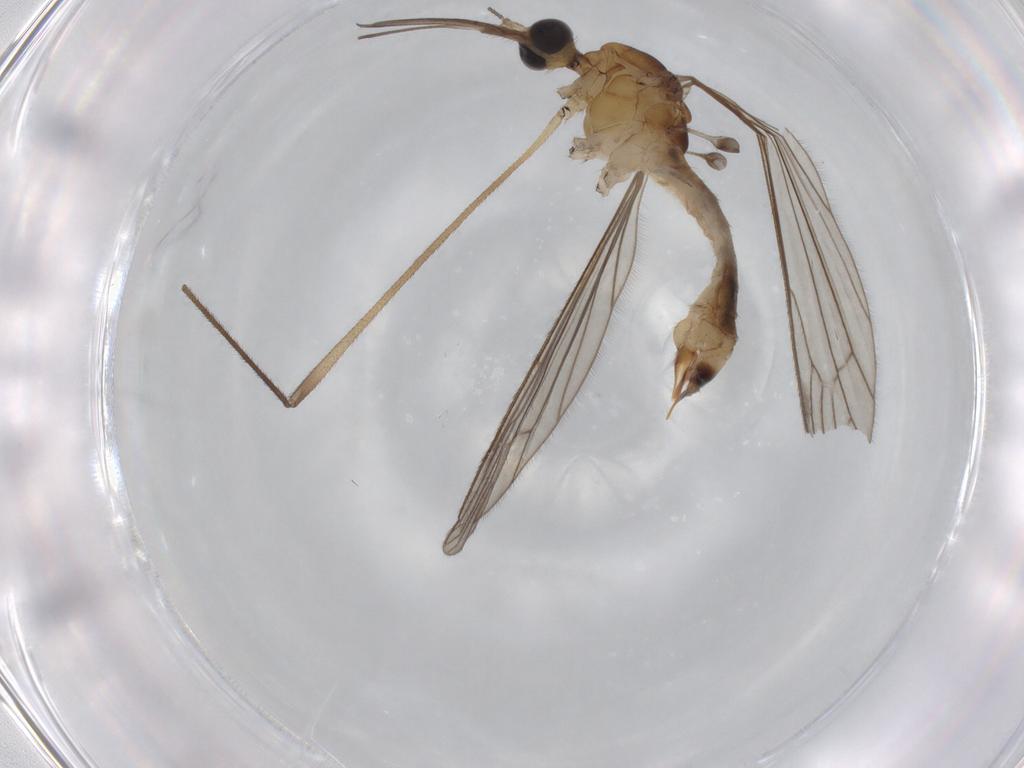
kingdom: Animalia
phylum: Arthropoda
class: Insecta
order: Diptera
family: Limoniidae
